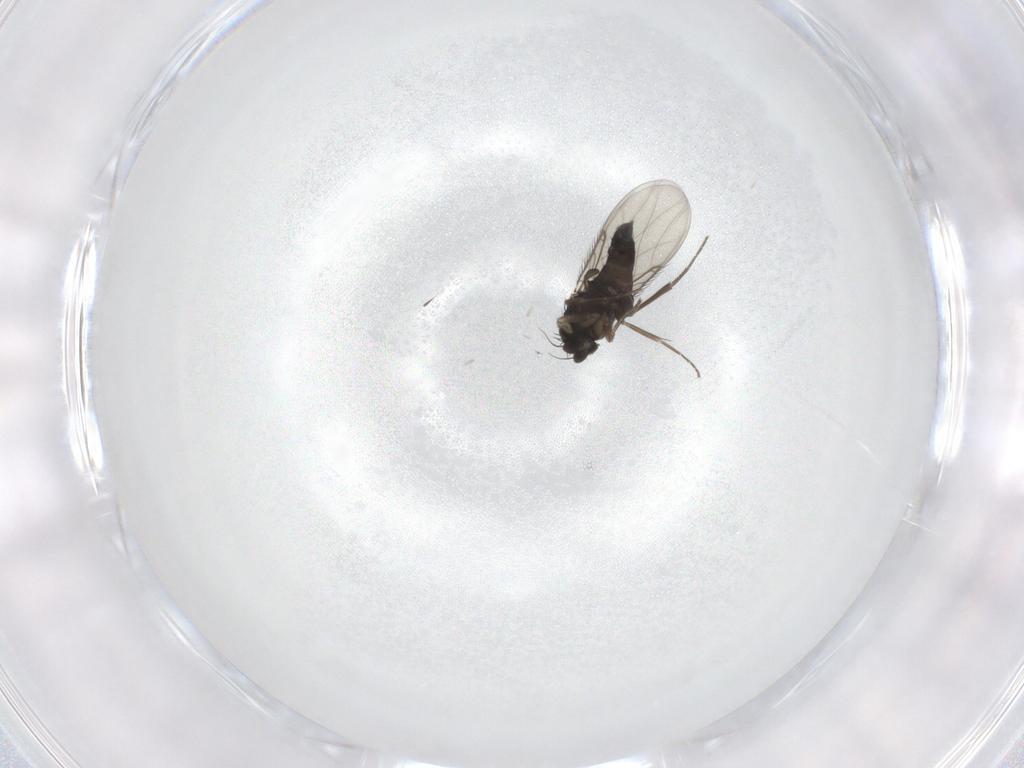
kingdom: Animalia
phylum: Arthropoda
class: Insecta
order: Diptera
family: Phoridae
